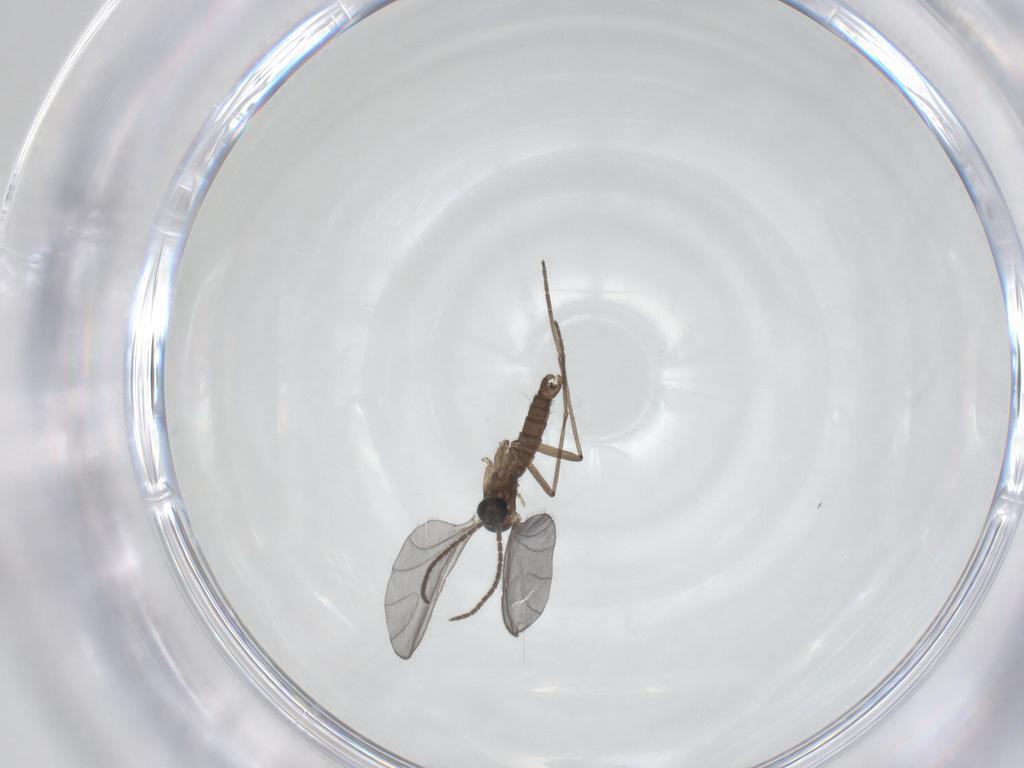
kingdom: Animalia
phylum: Arthropoda
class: Insecta
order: Diptera
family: Sciaridae
